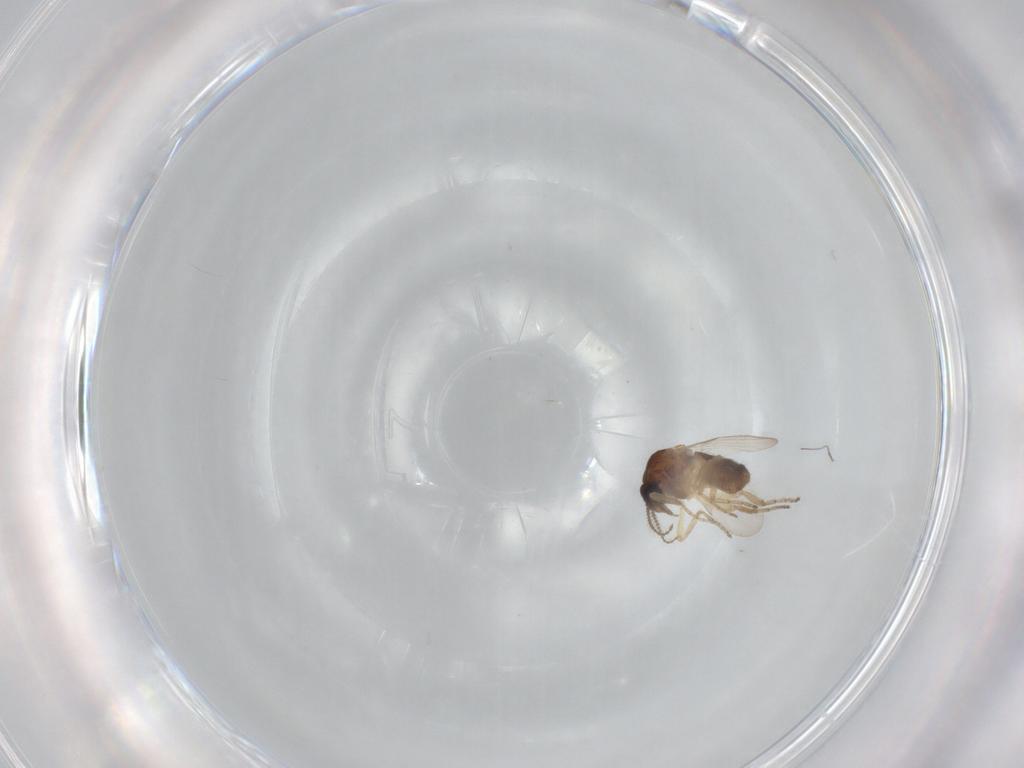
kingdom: Animalia
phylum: Arthropoda
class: Insecta
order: Diptera
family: Ceratopogonidae
